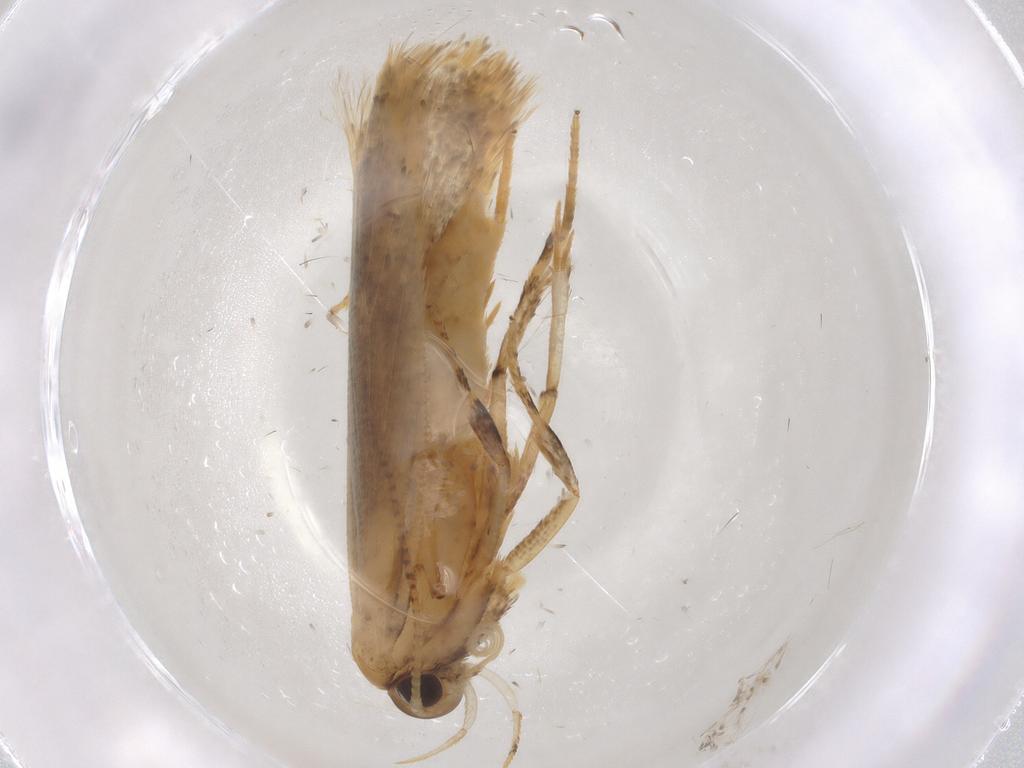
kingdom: Animalia
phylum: Arthropoda
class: Insecta
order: Lepidoptera
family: Gelechiidae
